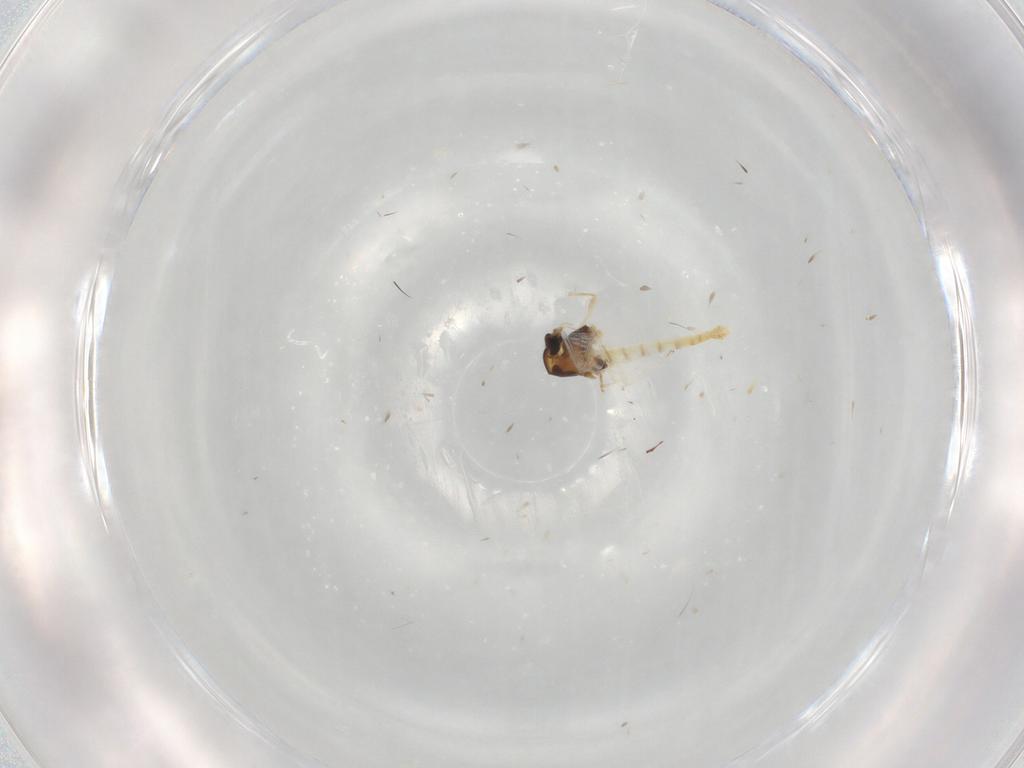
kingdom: Animalia
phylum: Arthropoda
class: Insecta
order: Diptera
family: Chironomidae
